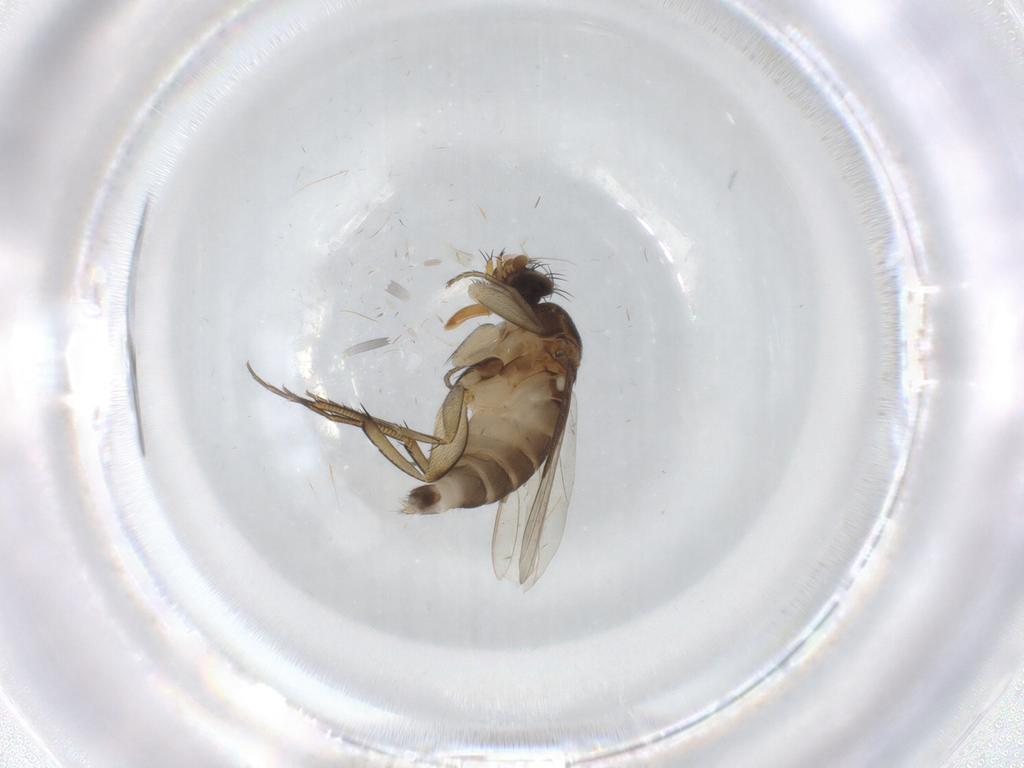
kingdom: Animalia
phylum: Arthropoda
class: Insecta
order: Diptera
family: Phoridae
